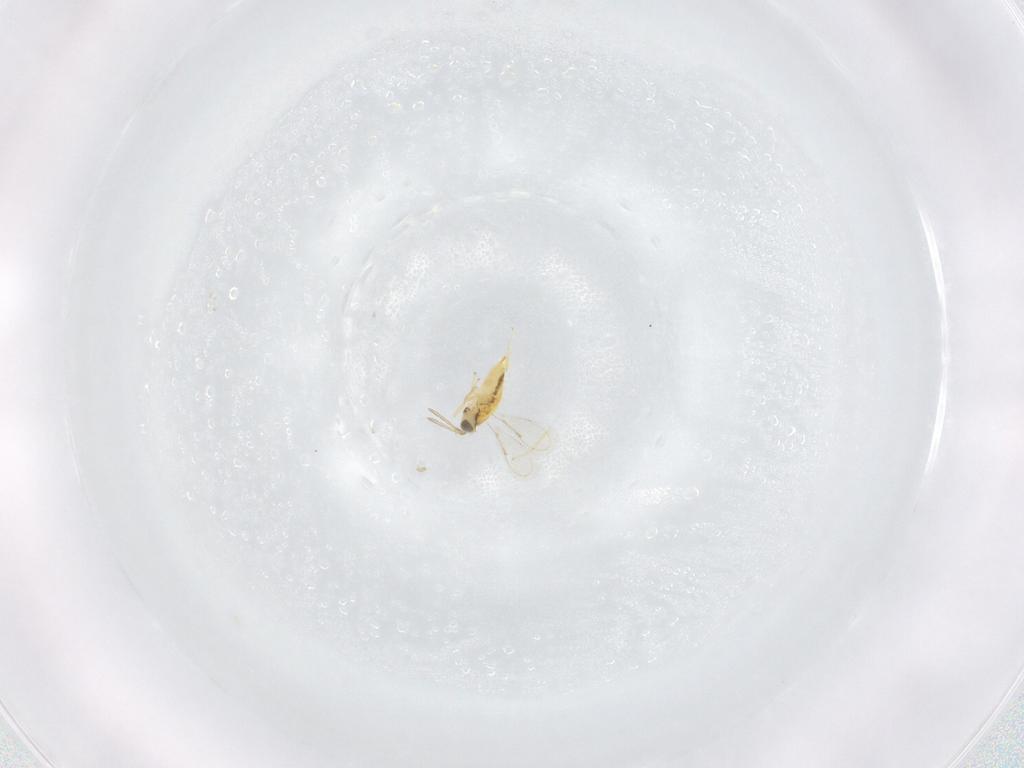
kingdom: Animalia
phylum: Arthropoda
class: Insecta
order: Hymenoptera
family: Aphelinidae
